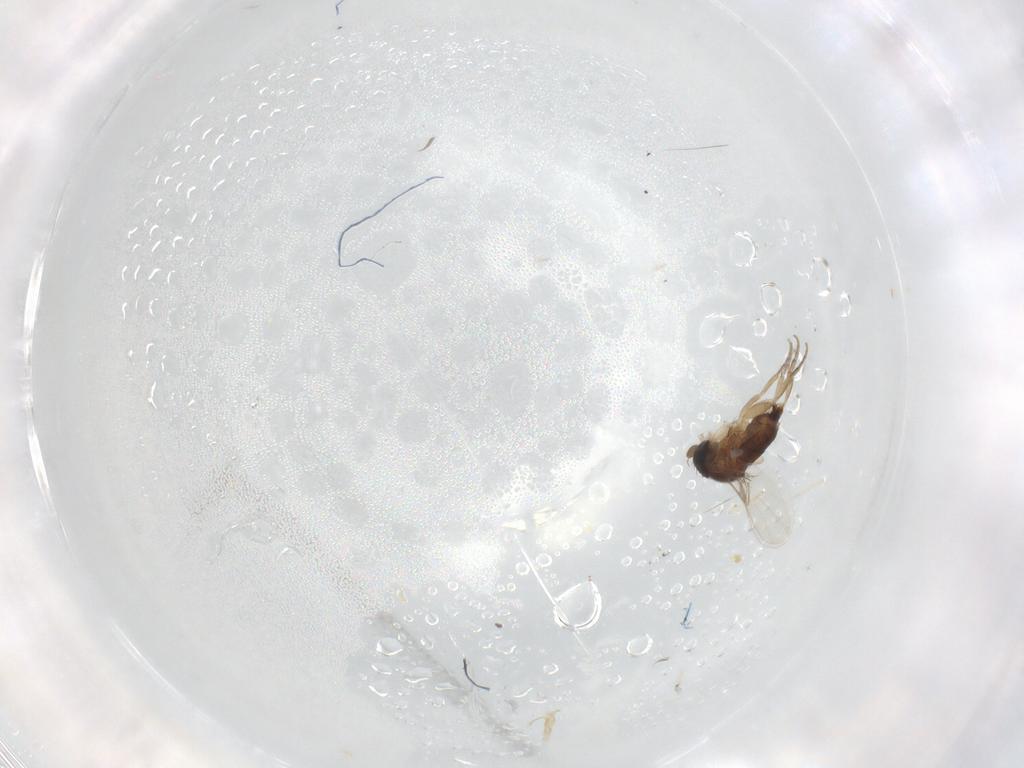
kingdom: Animalia
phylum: Arthropoda
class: Insecta
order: Diptera
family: Phoridae
